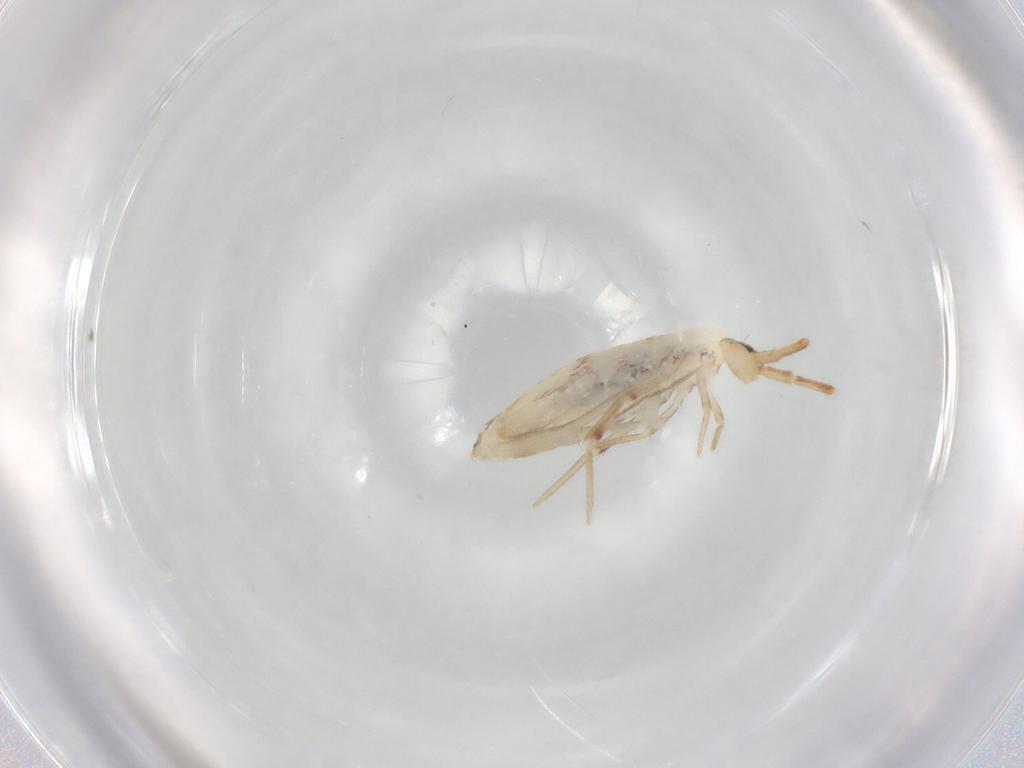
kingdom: Animalia
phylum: Arthropoda
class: Collembola
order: Poduromorpha
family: Hypogastruridae
